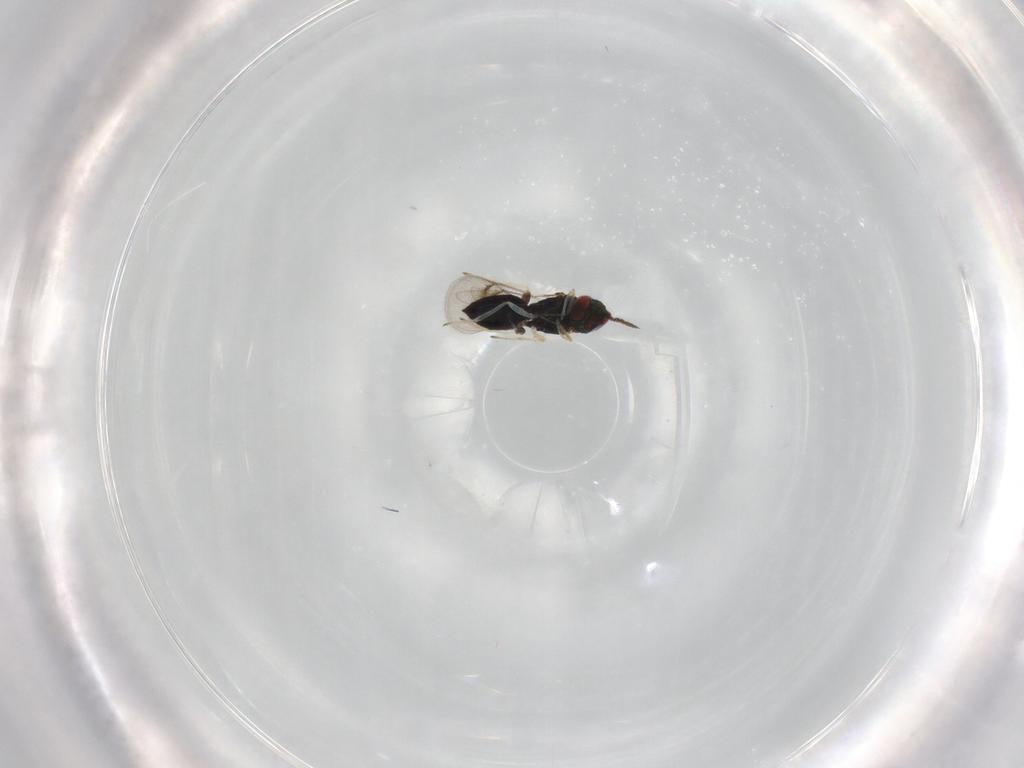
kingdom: Animalia
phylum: Arthropoda
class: Insecta
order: Hymenoptera
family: Eulophidae
